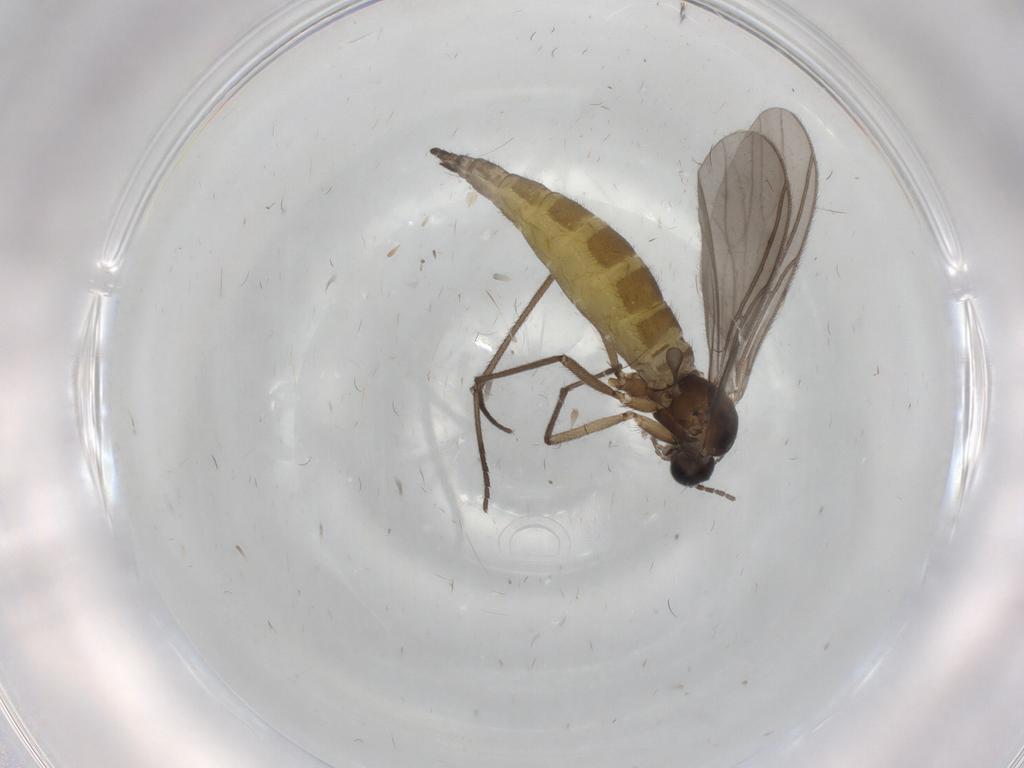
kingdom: Animalia
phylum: Arthropoda
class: Insecta
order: Diptera
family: Sciaridae
